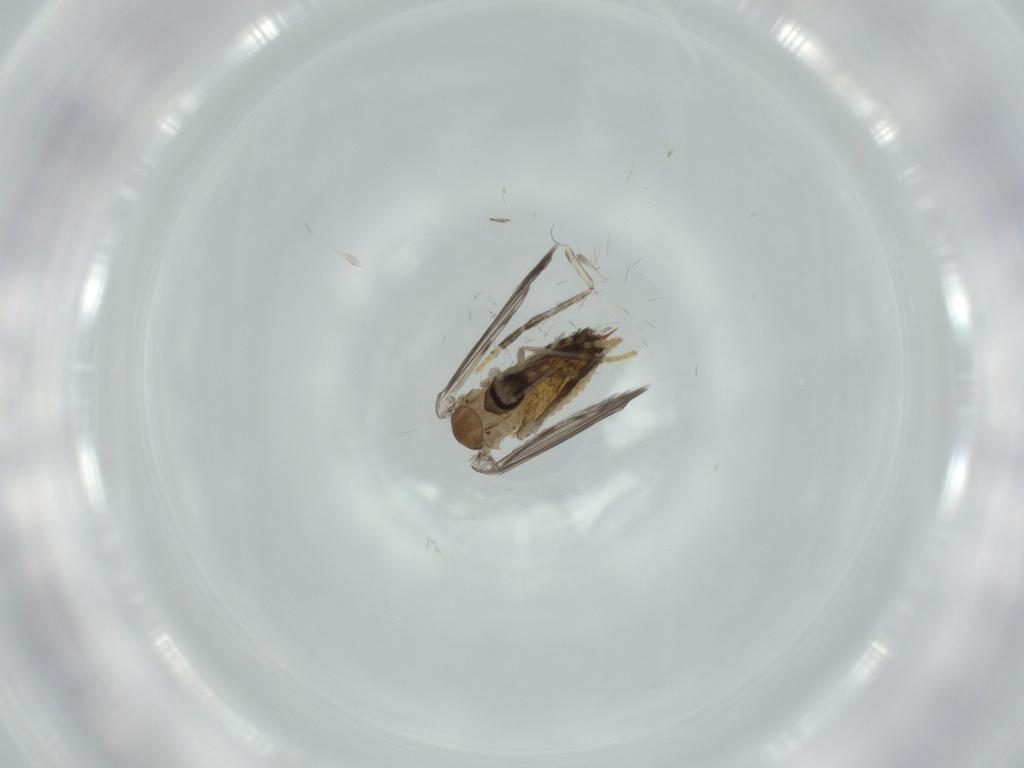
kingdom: Animalia
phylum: Arthropoda
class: Insecta
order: Diptera
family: Psychodidae
